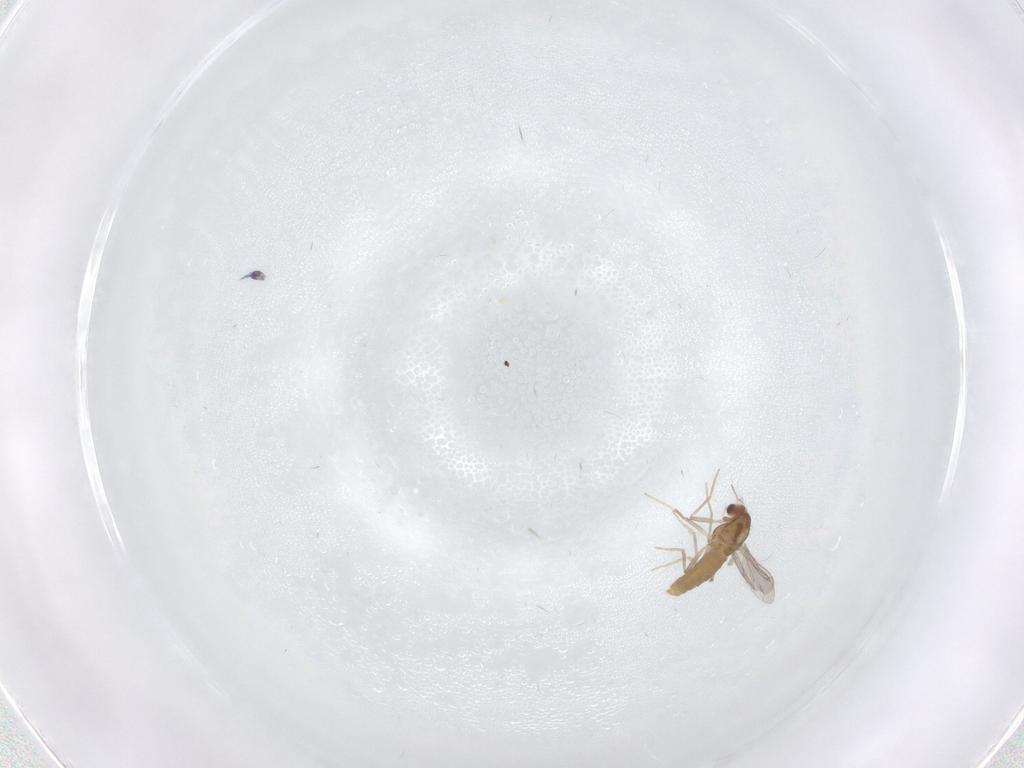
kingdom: Animalia
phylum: Arthropoda
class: Insecta
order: Diptera
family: Chironomidae
